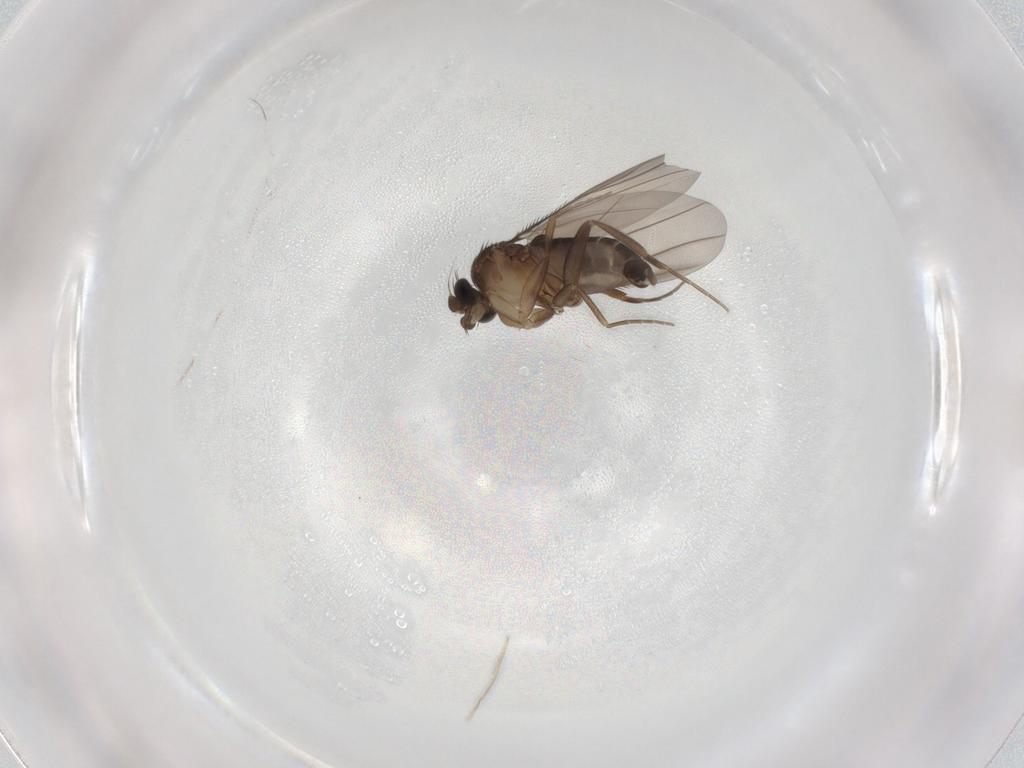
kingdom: Animalia
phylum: Arthropoda
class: Insecta
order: Diptera
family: Phoridae
